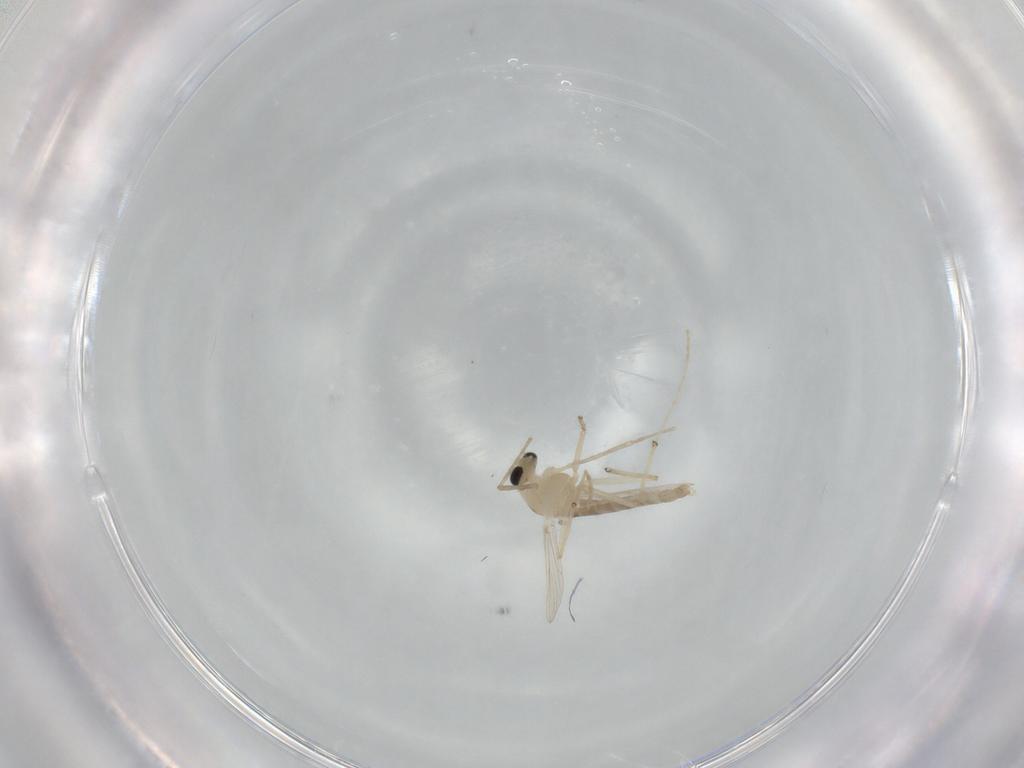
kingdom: Animalia
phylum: Arthropoda
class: Insecta
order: Diptera
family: Chironomidae
